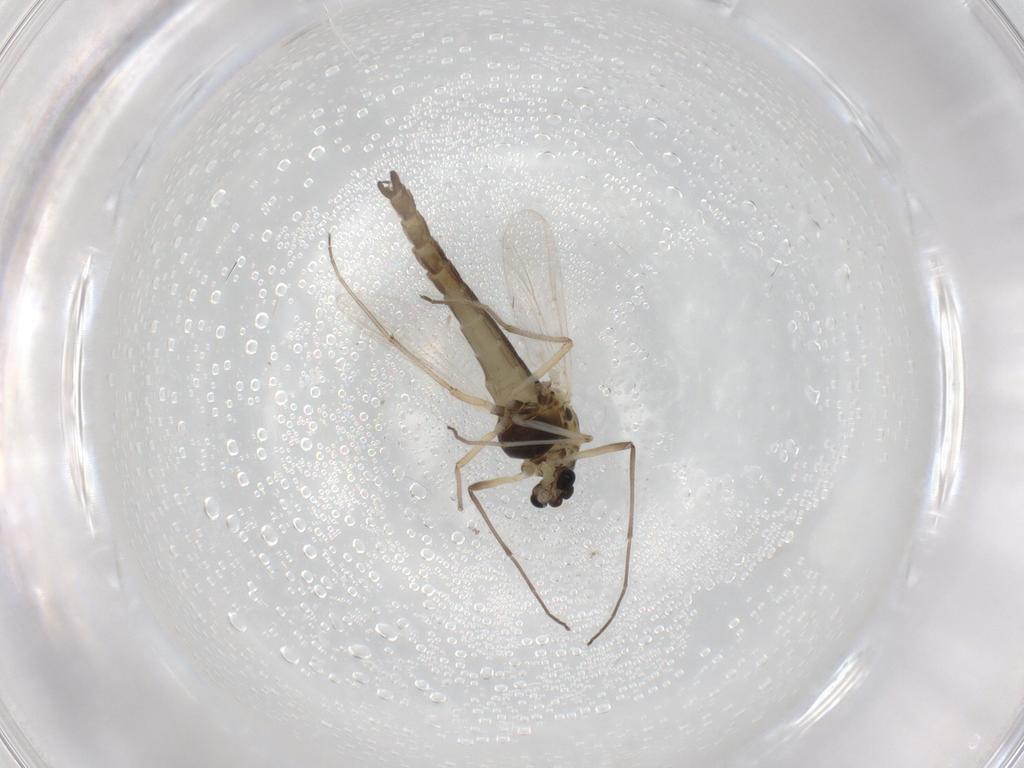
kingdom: Animalia
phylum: Arthropoda
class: Insecta
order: Diptera
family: Chironomidae
